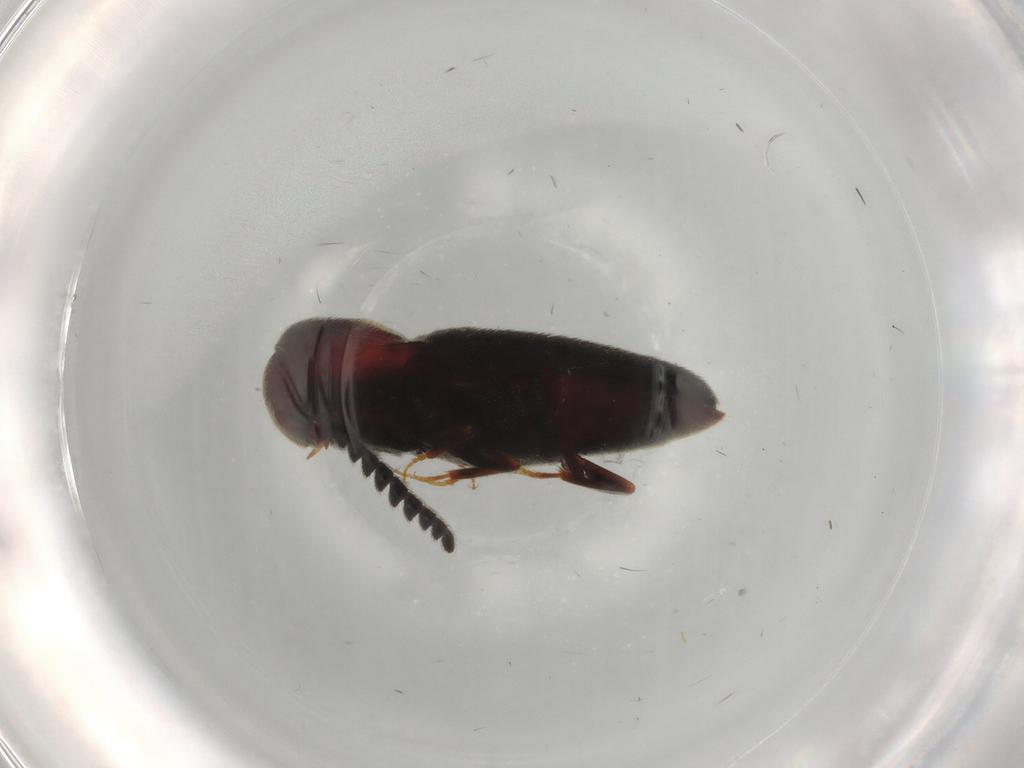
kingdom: Animalia
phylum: Arthropoda
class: Insecta
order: Coleoptera
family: Eucnemidae
